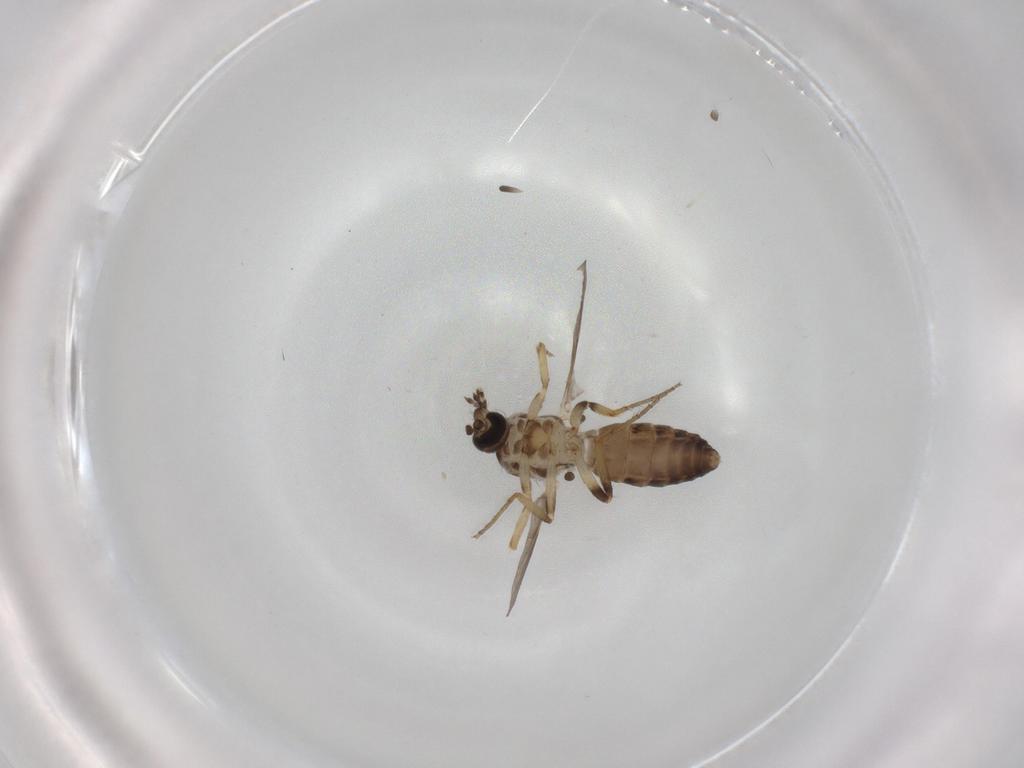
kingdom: Animalia
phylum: Arthropoda
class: Insecta
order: Diptera
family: Ceratopogonidae
